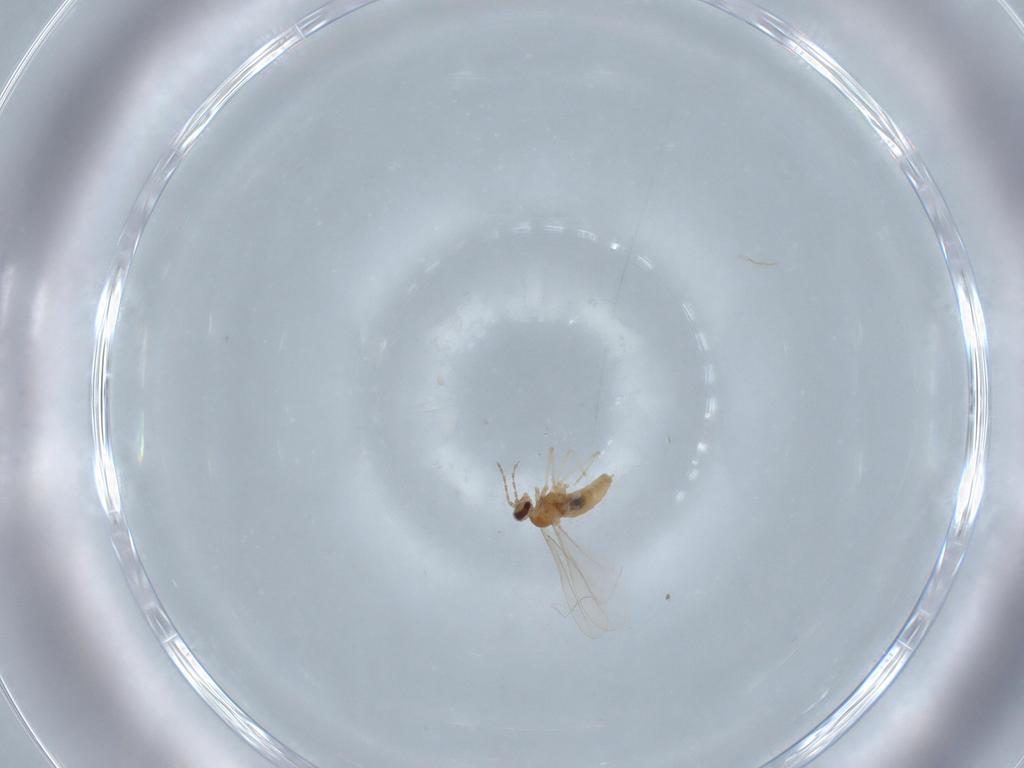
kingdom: Animalia
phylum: Arthropoda
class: Insecta
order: Diptera
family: Cecidomyiidae
